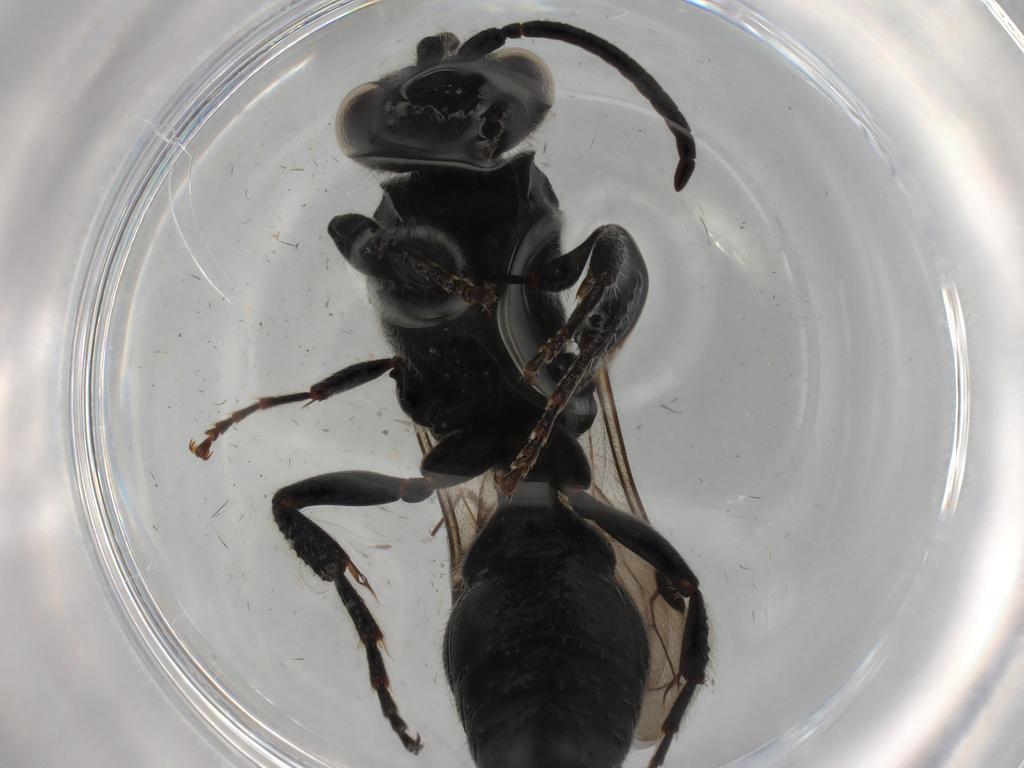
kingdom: Animalia
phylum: Arthropoda
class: Insecta
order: Hymenoptera
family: Tiphiidae
